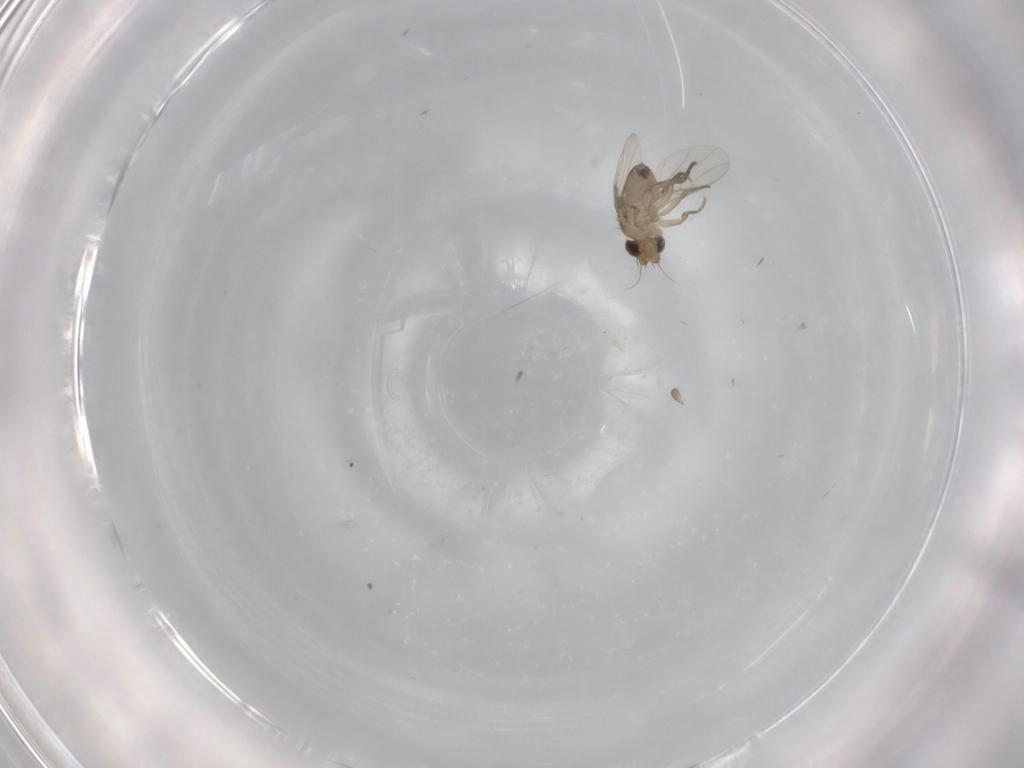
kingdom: Animalia
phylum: Arthropoda
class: Insecta
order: Diptera
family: Phoridae
